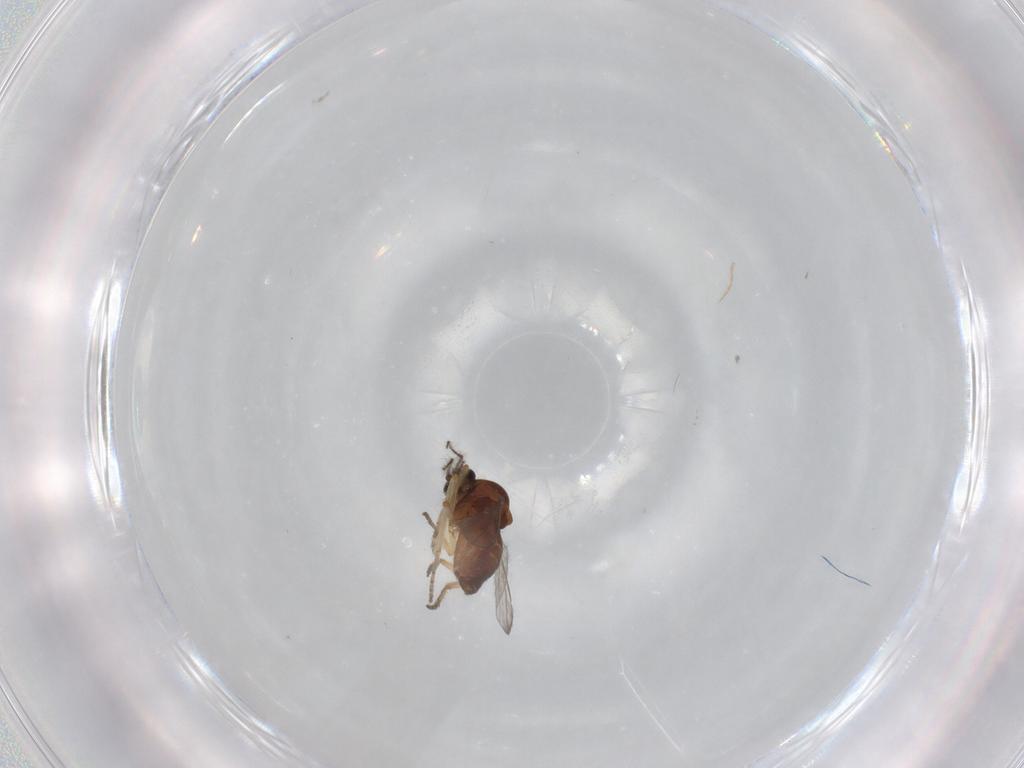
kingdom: Animalia
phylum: Arthropoda
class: Insecta
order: Diptera
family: Ceratopogonidae
